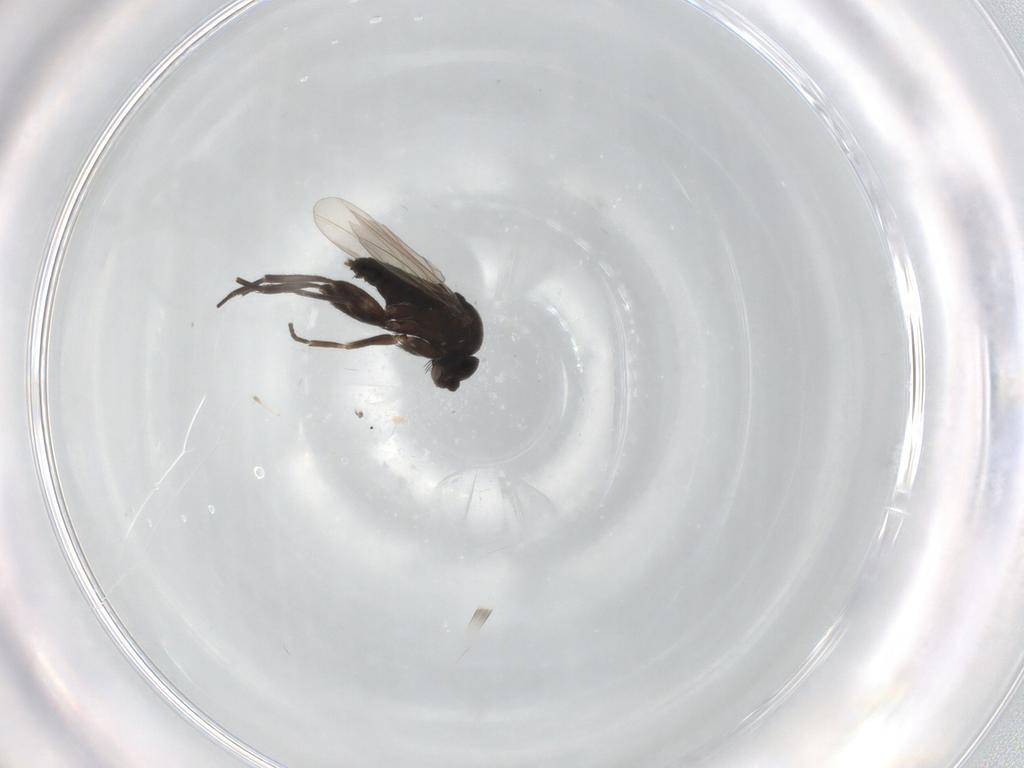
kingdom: Animalia
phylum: Arthropoda
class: Insecta
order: Diptera
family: Phoridae
